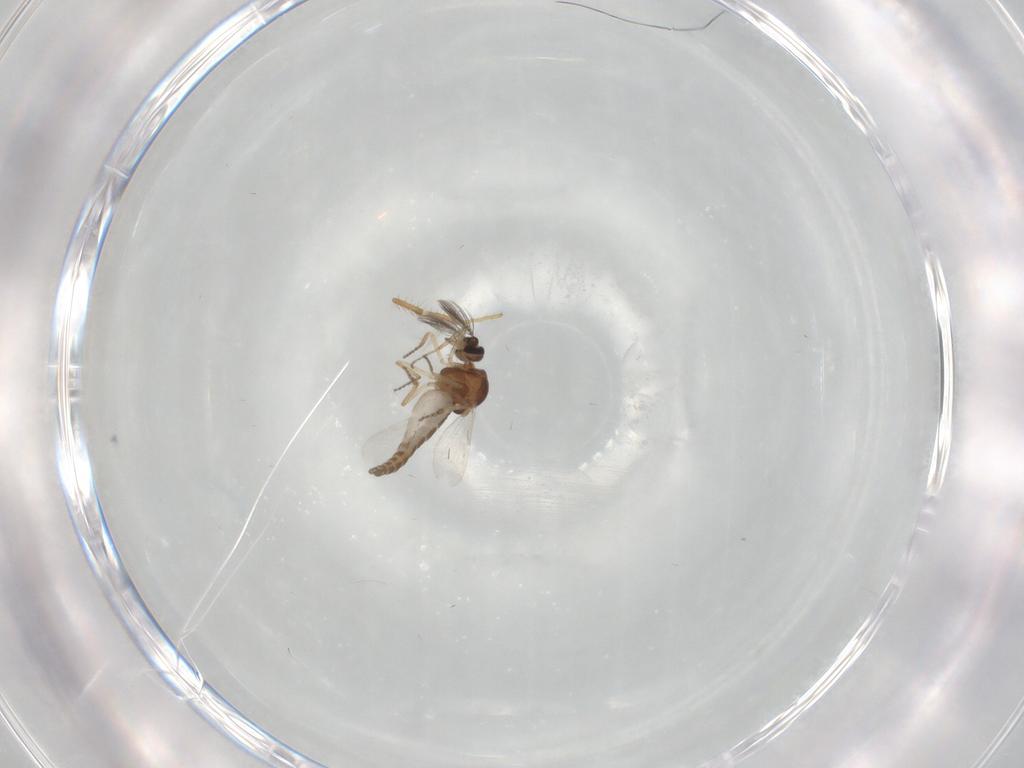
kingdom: Animalia
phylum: Arthropoda
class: Insecta
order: Diptera
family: Ceratopogonidae
